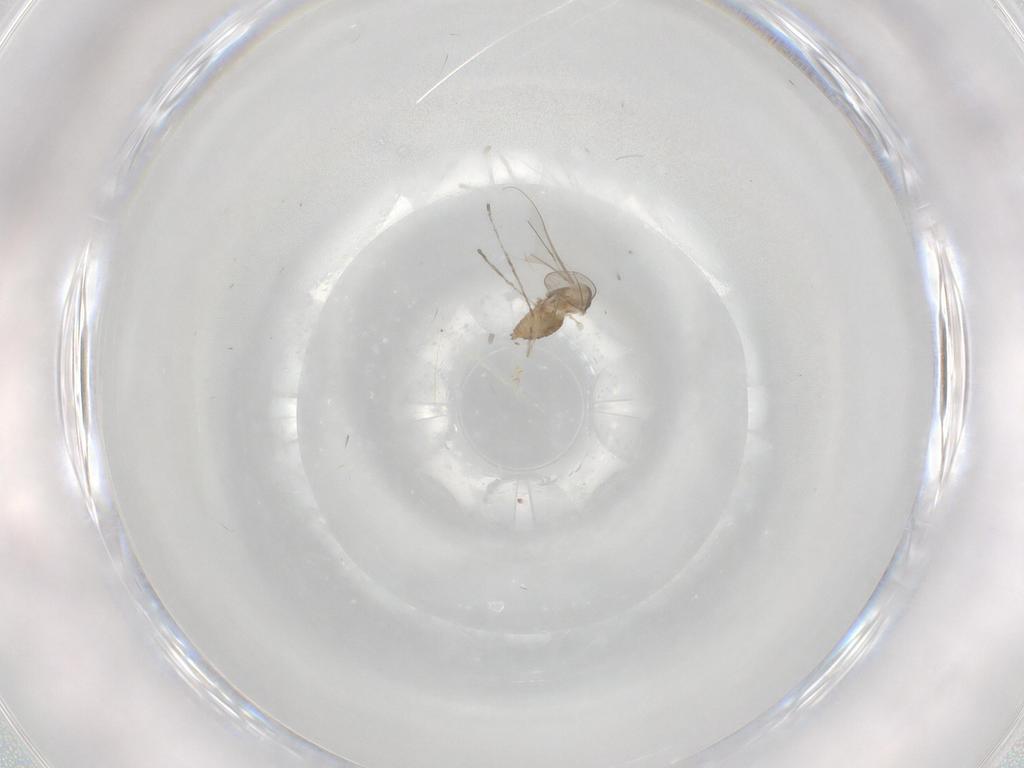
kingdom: Animalia
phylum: Arthropoda
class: Insecta
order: Diptera
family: Cecidomyiidae
